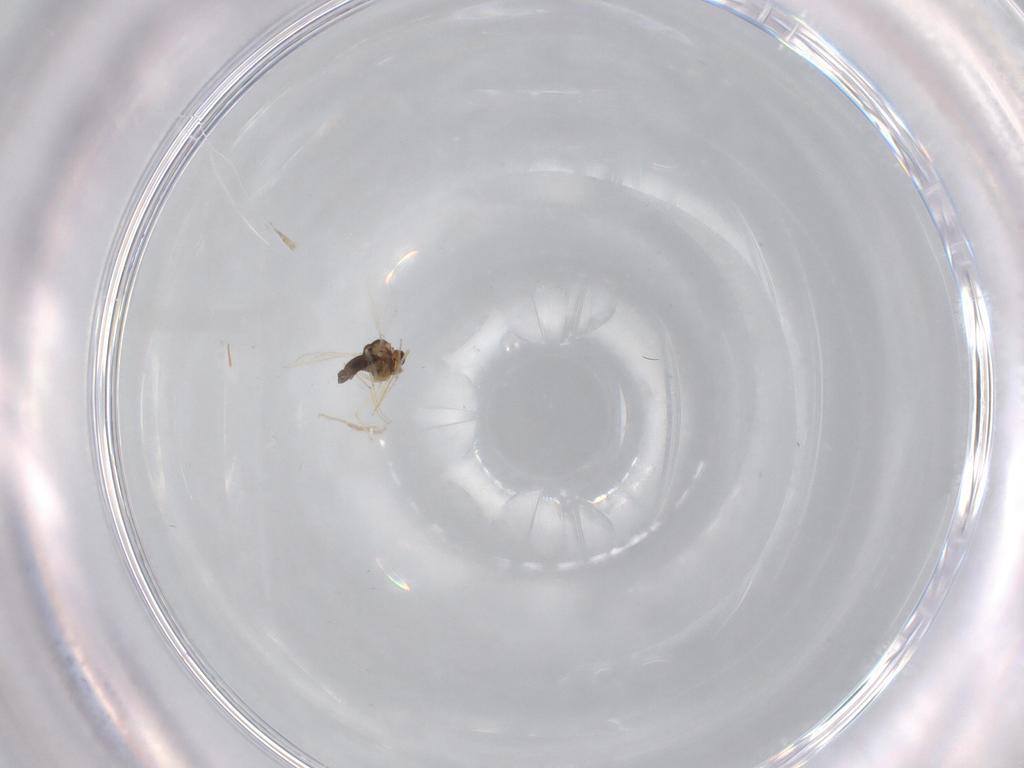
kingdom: Animalia
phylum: Arthropoda
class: Insecta
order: Diptera
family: Chironomidae
